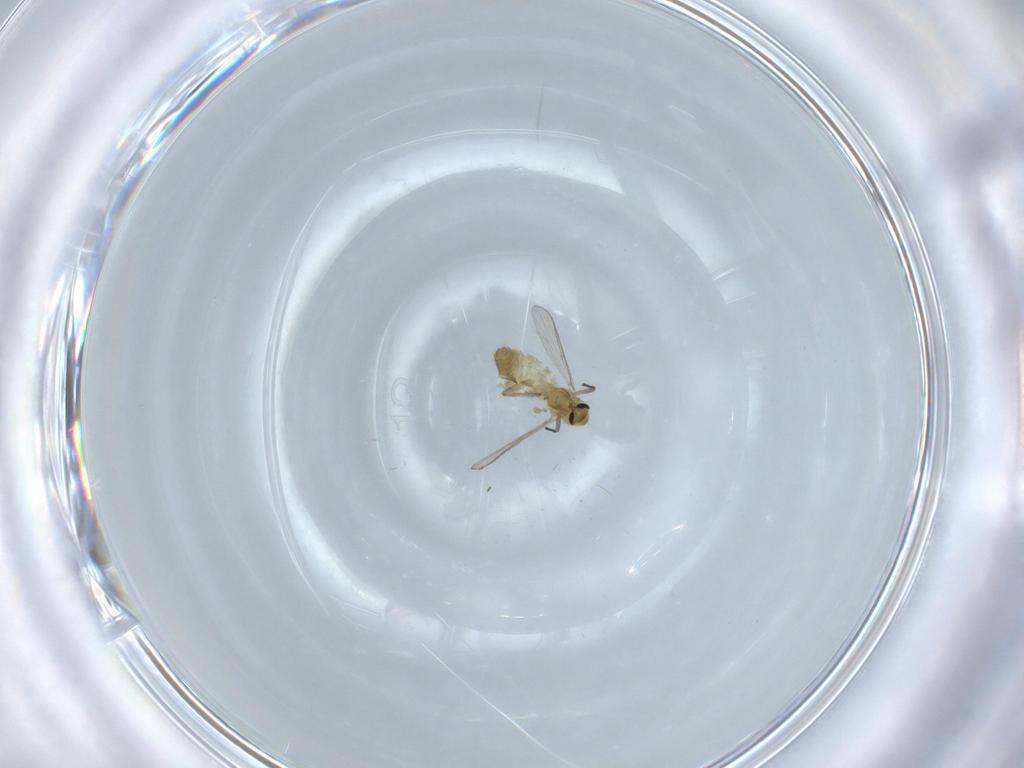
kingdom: Animalia
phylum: Arthropoda
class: Insecta
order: Diptera
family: Chironomidae
